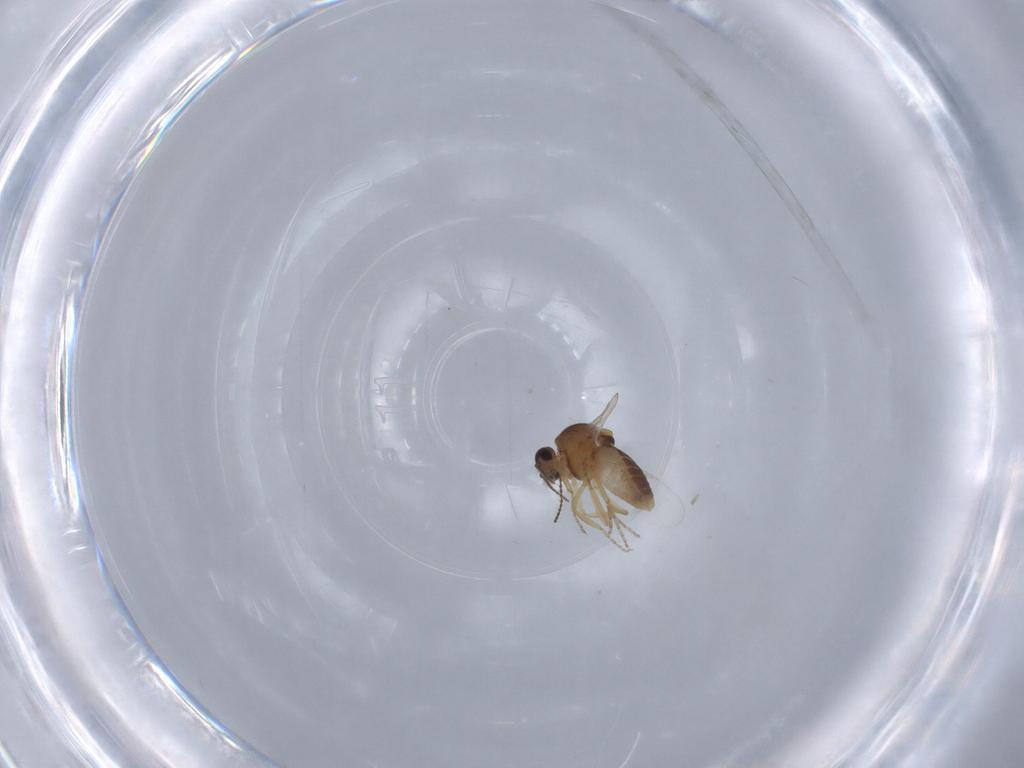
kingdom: Animalia
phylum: Arthropoda
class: Insecta
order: Diptera
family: Ceratopogonidae
